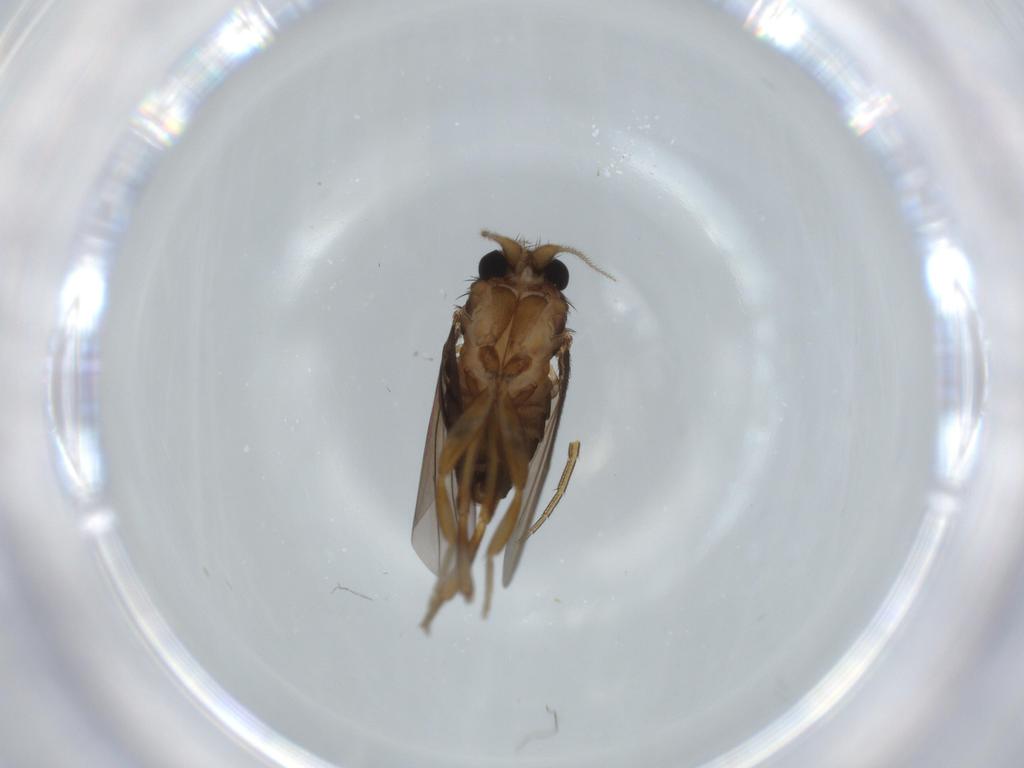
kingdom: Animalia
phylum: Arthropoda
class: Insecta
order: Diptera
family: Phoridae
